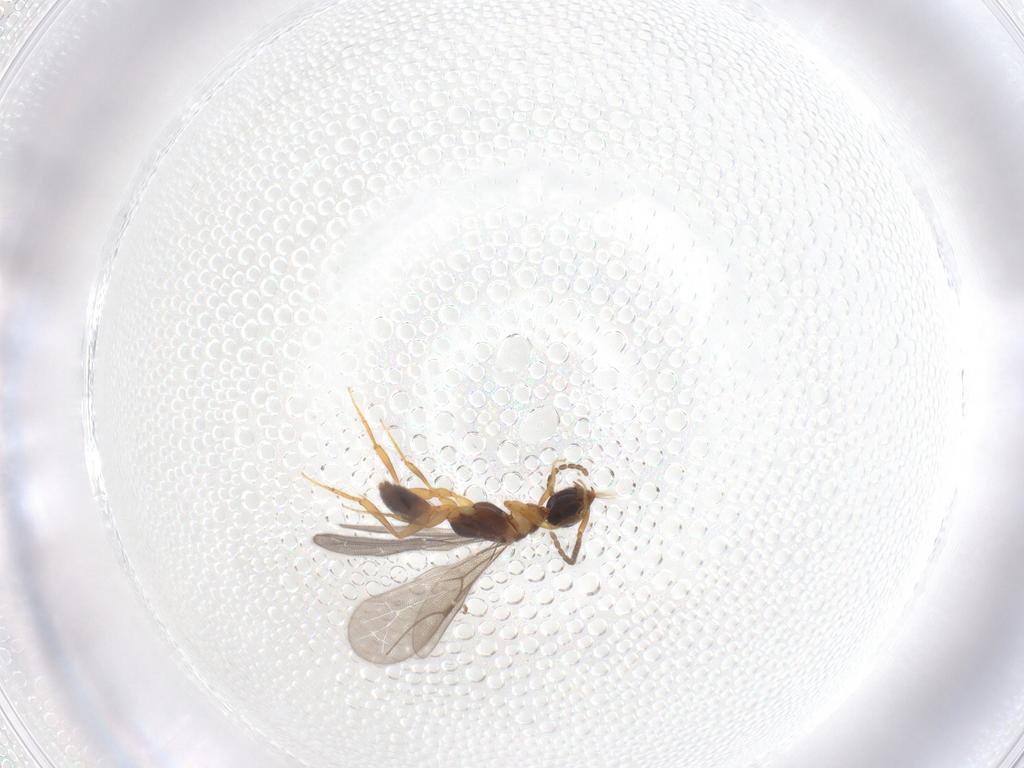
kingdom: Animalia
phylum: Arthropoda
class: Insecta
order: Hymenoptera
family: Bethylidae
